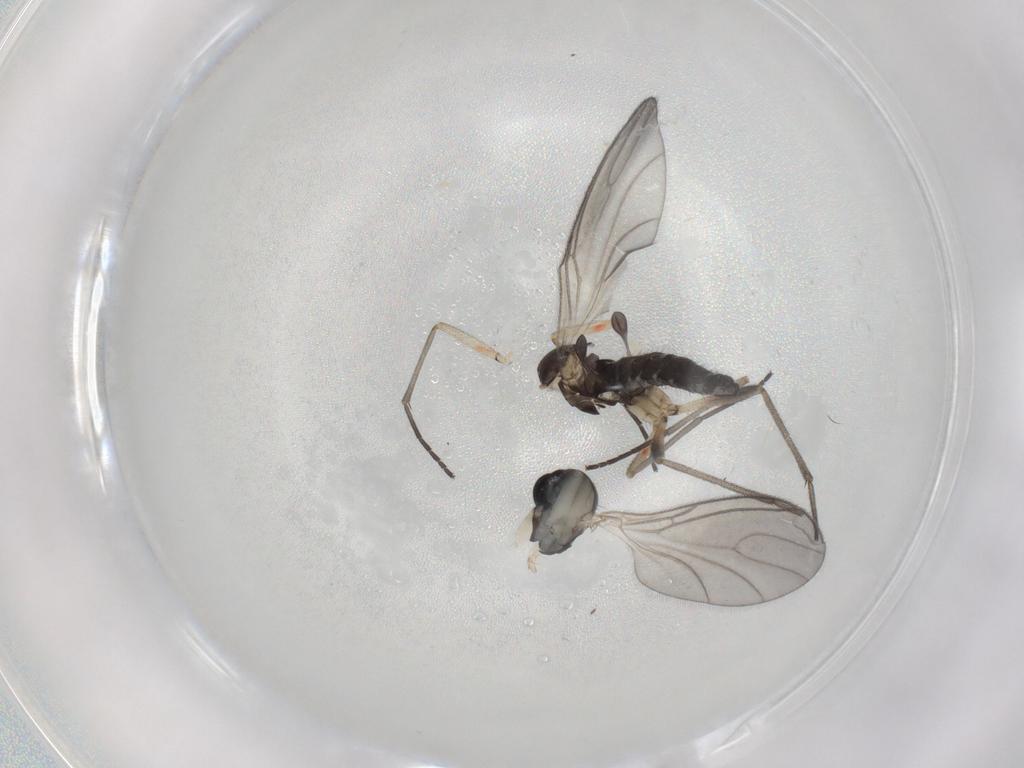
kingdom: Animalia
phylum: Arthropoda
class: Insecta
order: Diptera
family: Sciaridae
